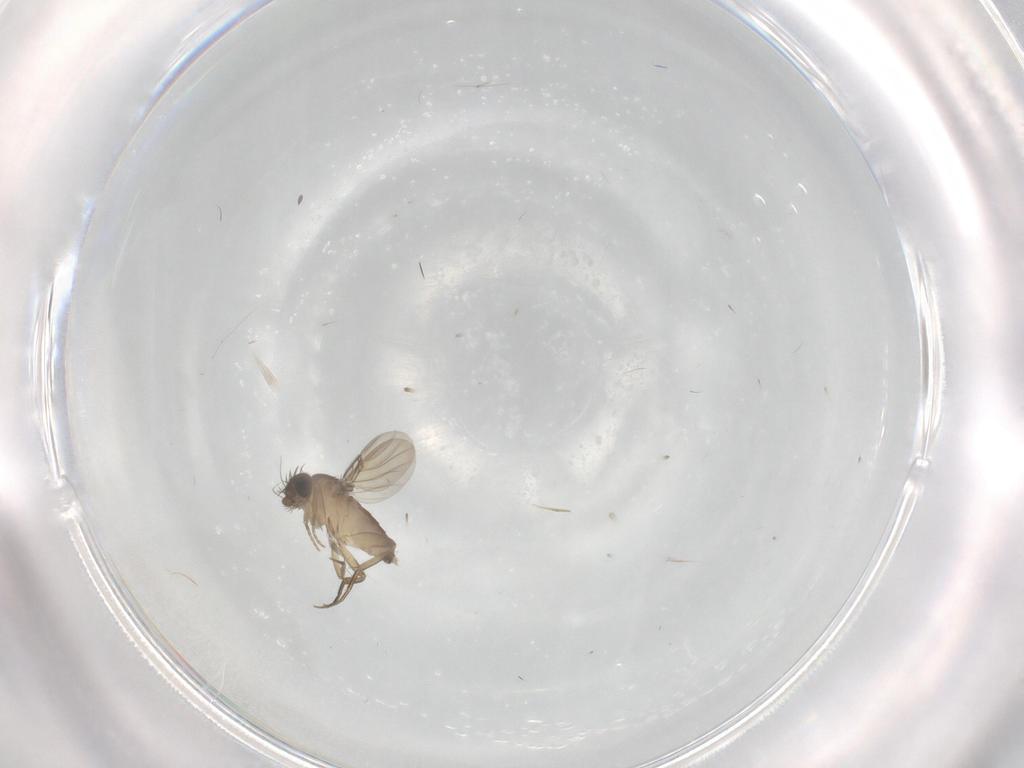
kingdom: Animalia
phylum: Arthropoda
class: Insecta
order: Diptera
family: Phoridae
